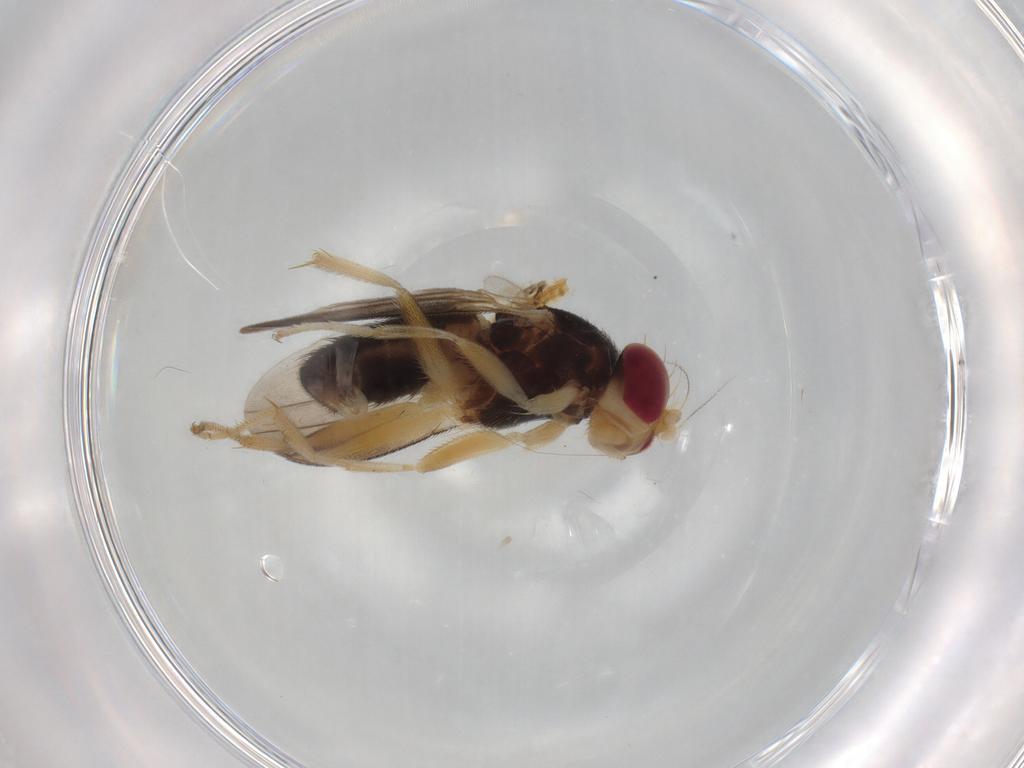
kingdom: Animalia
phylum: Arthropoda
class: Insecta
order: Diptera
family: Clusiidae
